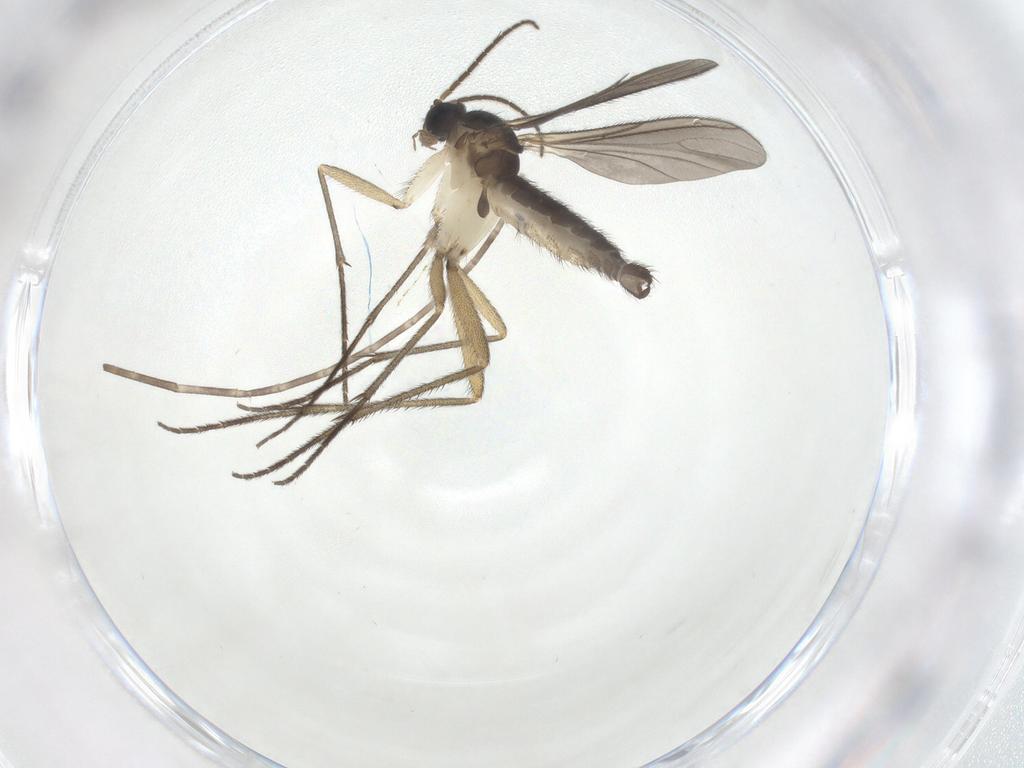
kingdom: Animalia
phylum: Arthropoda
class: Insecta
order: Diptera
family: Sciaridae
